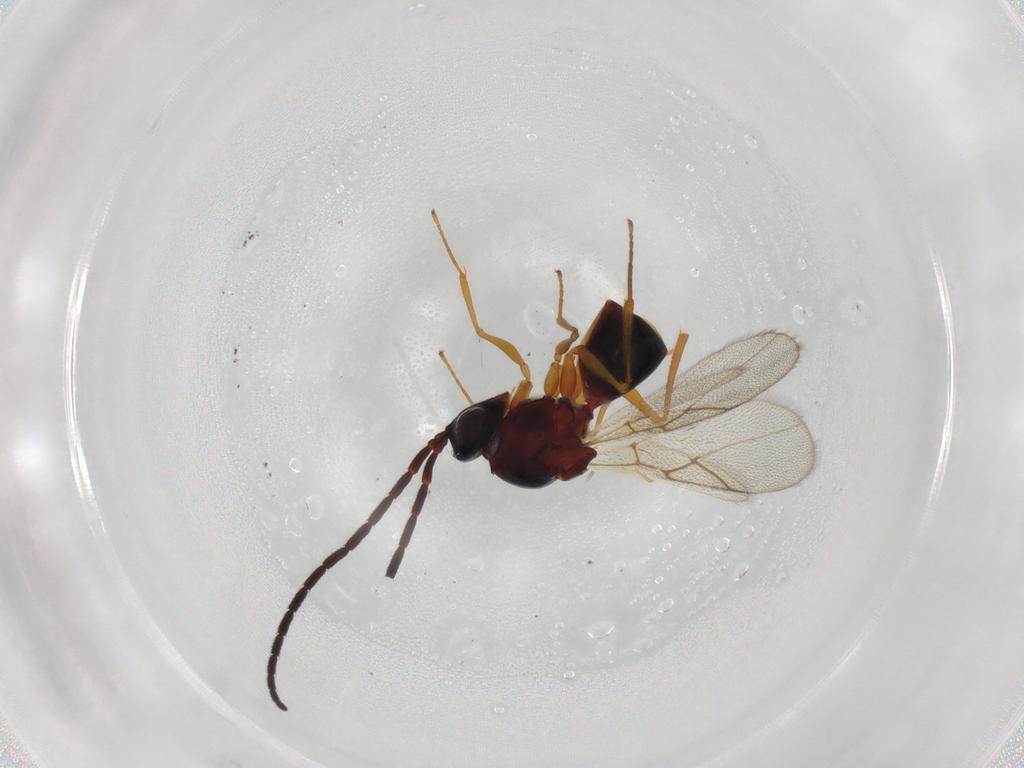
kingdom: Animalia
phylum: Arthropoda
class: Insecta
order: Hymenoptera
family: Figitidae
